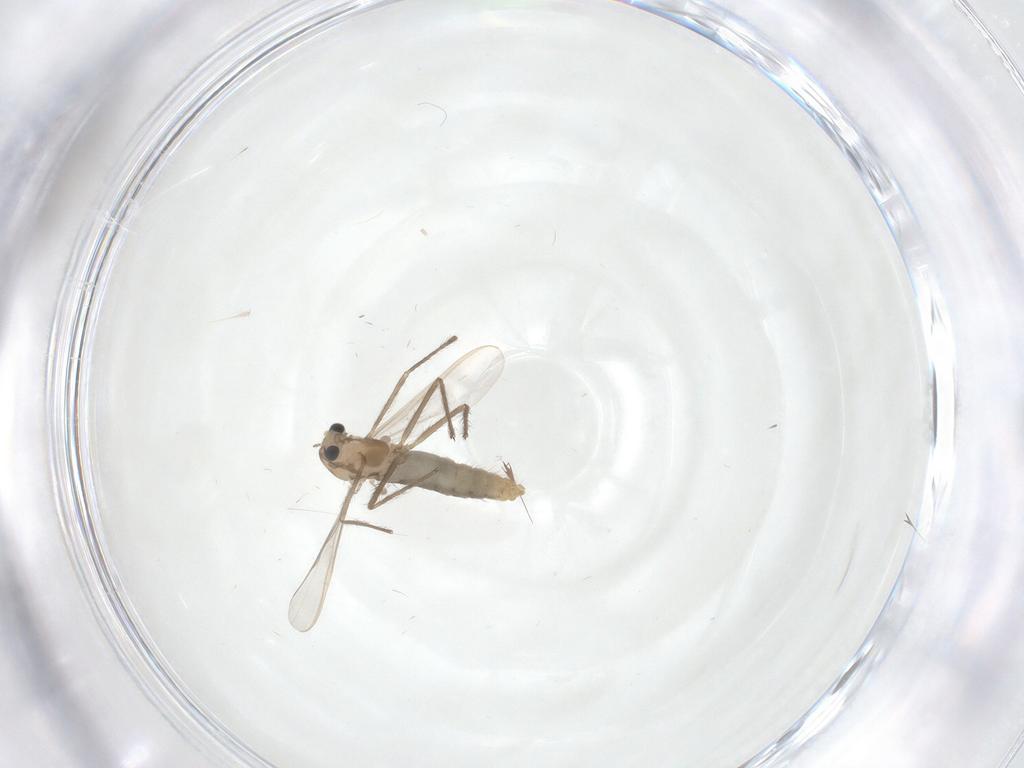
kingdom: Animalia
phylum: Arthropoda
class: Insecta
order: Diptera
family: Chironomidae
